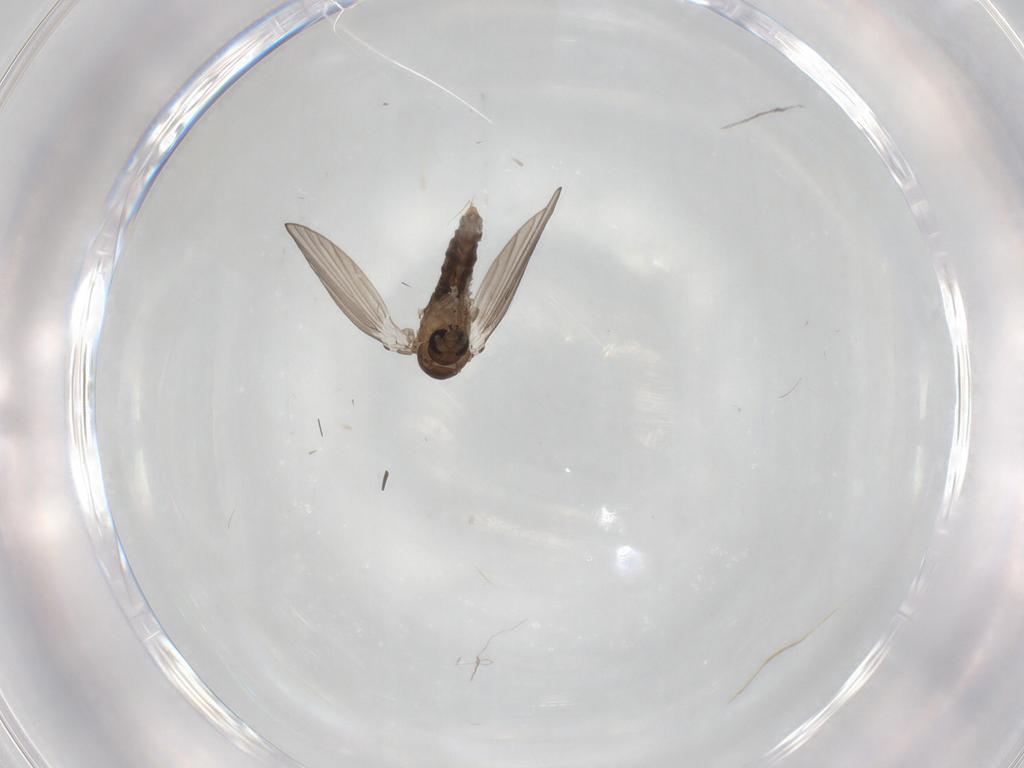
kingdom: Animalia
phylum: Arthropoda
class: Insecta
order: Diptera
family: Psychodidae
